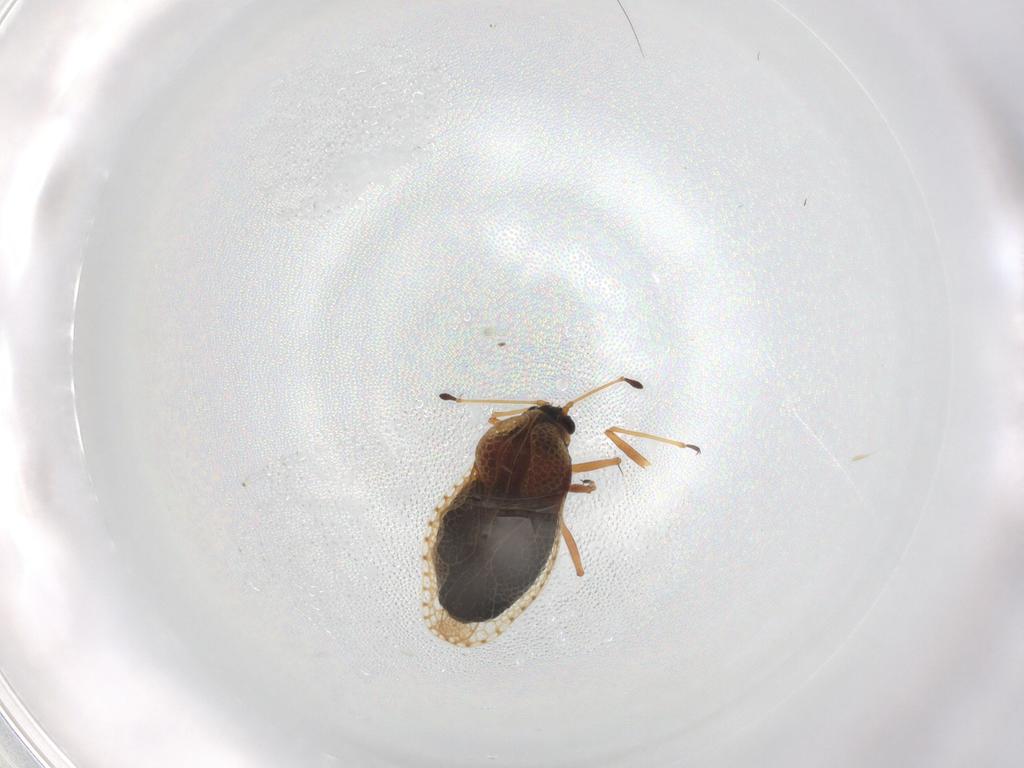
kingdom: Animalia
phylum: Arthropoda
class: Insecta
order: Hemiptera
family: Tingidae
